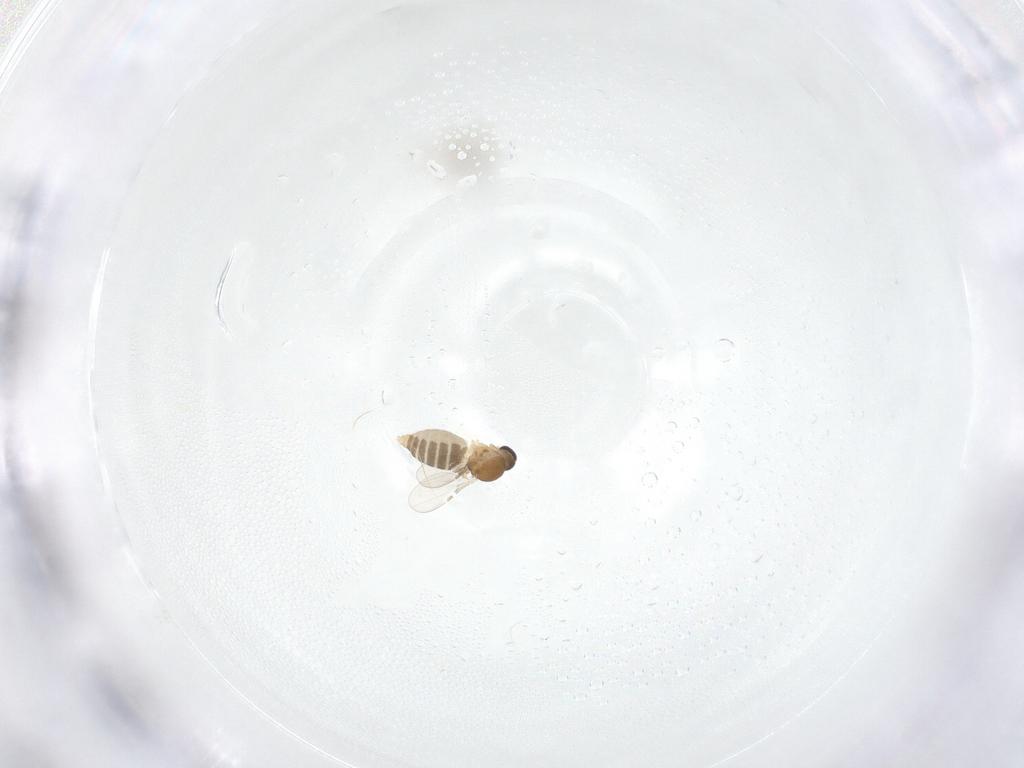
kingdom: Animalia
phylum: Arthropoda
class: Insecta
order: Diptera
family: Ceratopogonidae
